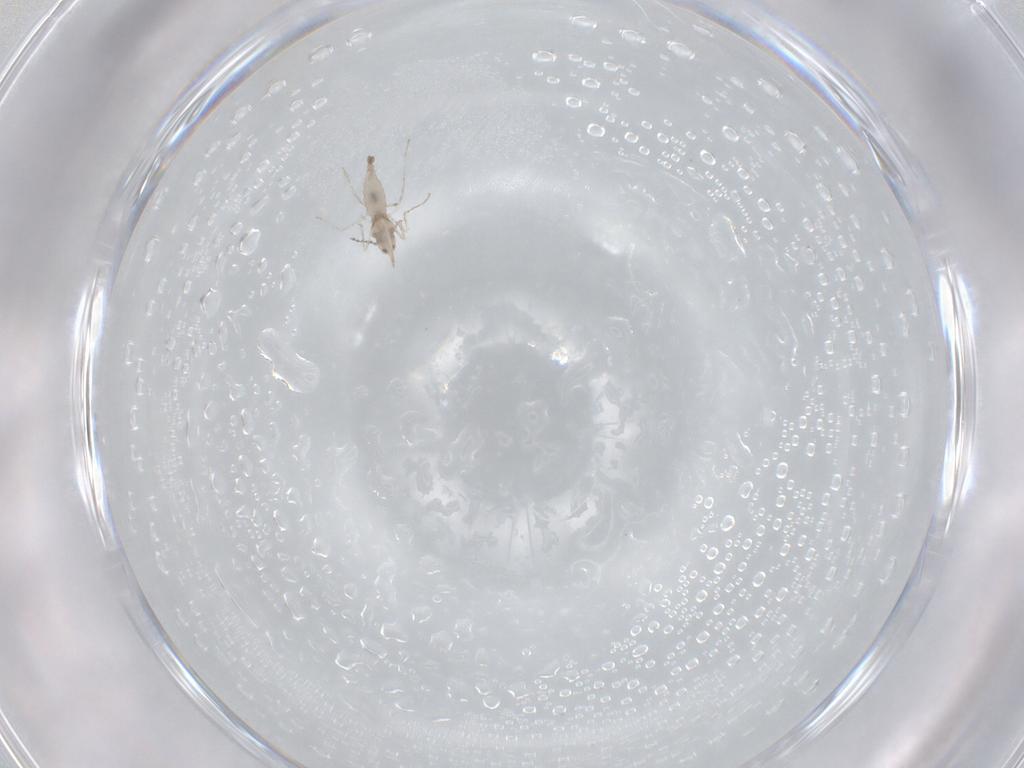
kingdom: Animalia
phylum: Arthropoda
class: Insecta
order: Diptera
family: Cecidomyiidae
